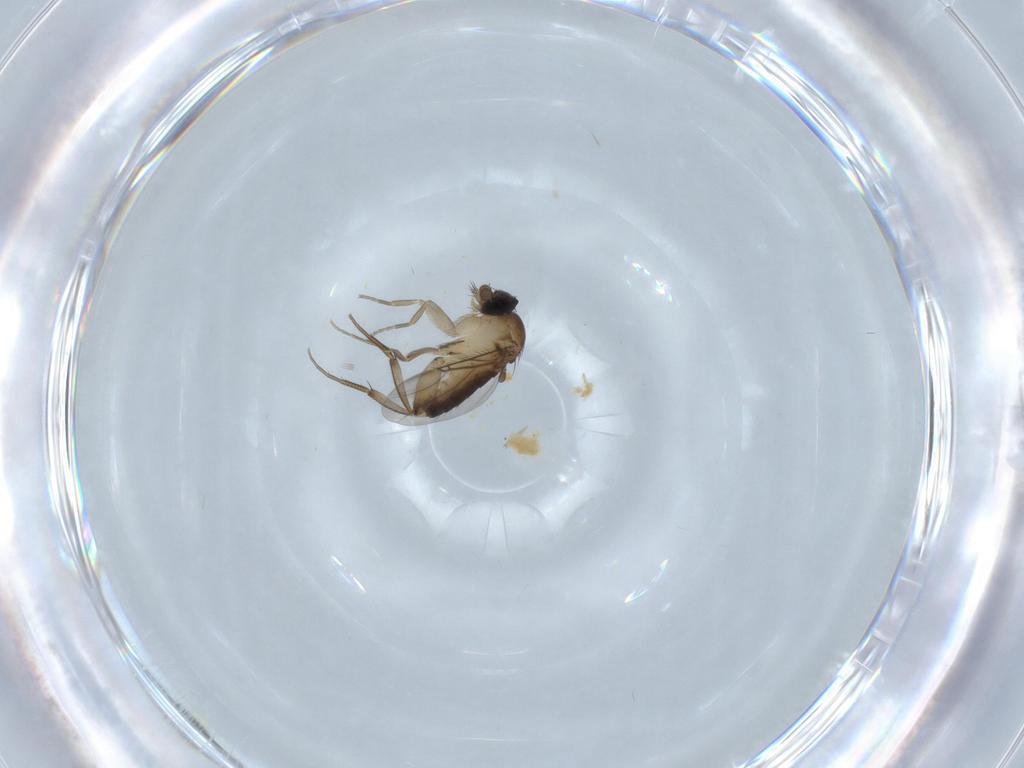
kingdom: Animalia
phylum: Arthropoda
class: Insecta
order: Diptera
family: Phoridae
